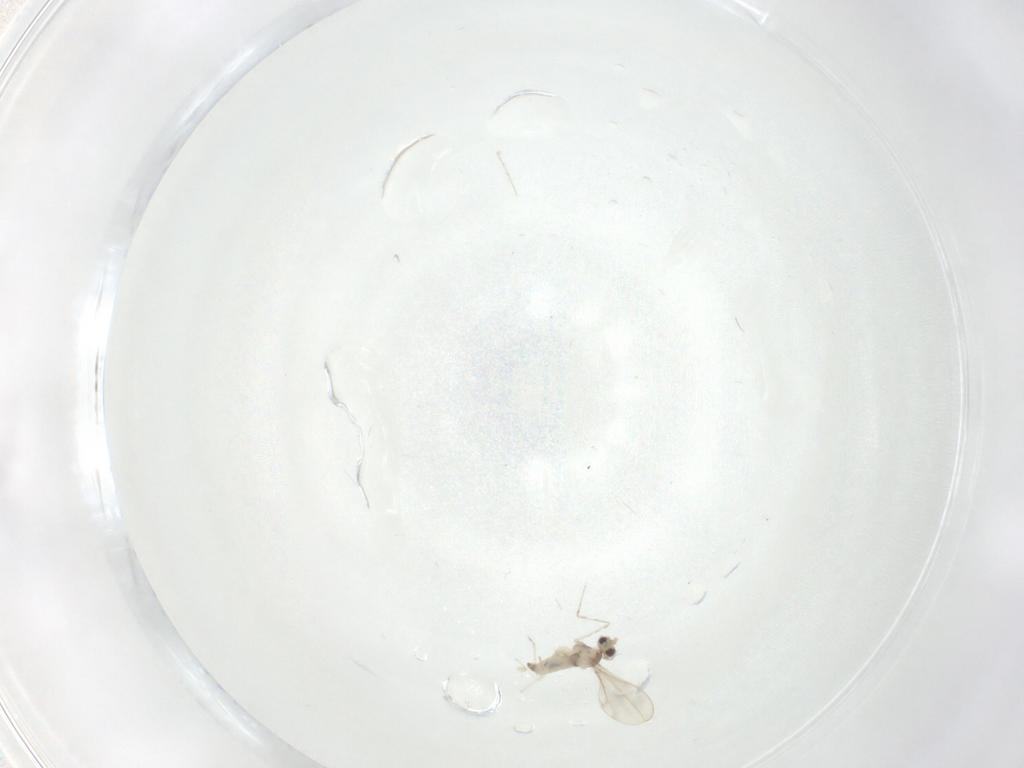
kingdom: Animalia
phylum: Arthropoda
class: Insecta
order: Diptera
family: Cecidomyiidae
